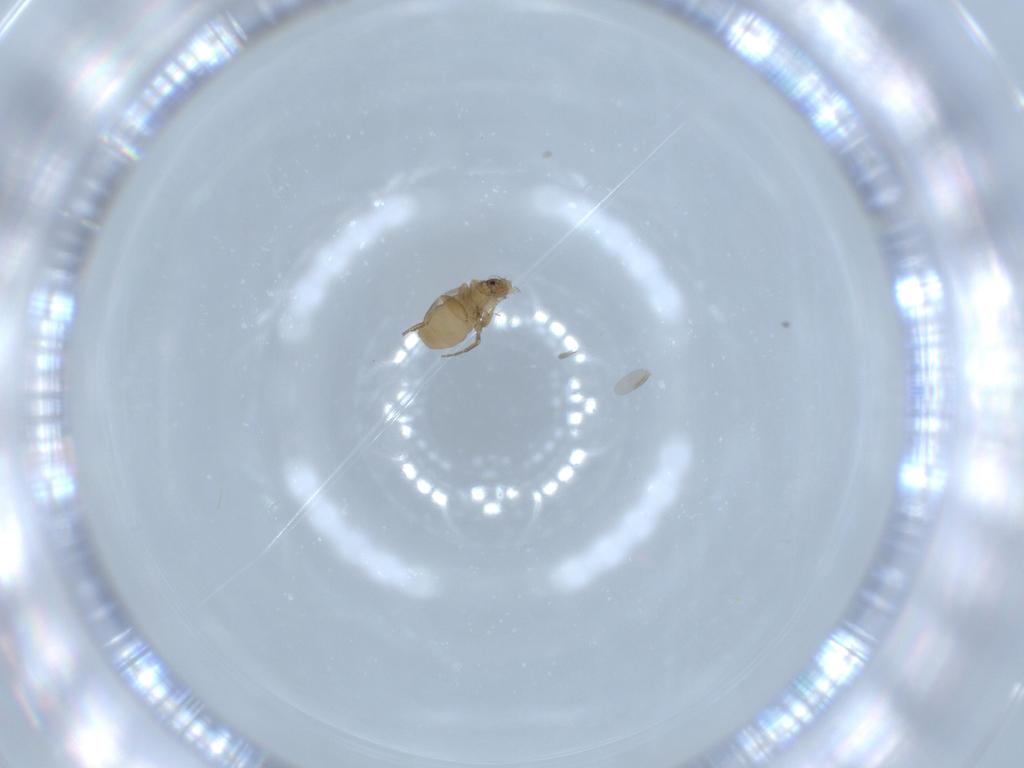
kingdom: Animalia
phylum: Arthropoda
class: Insecta
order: Diptera
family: Phoridae
